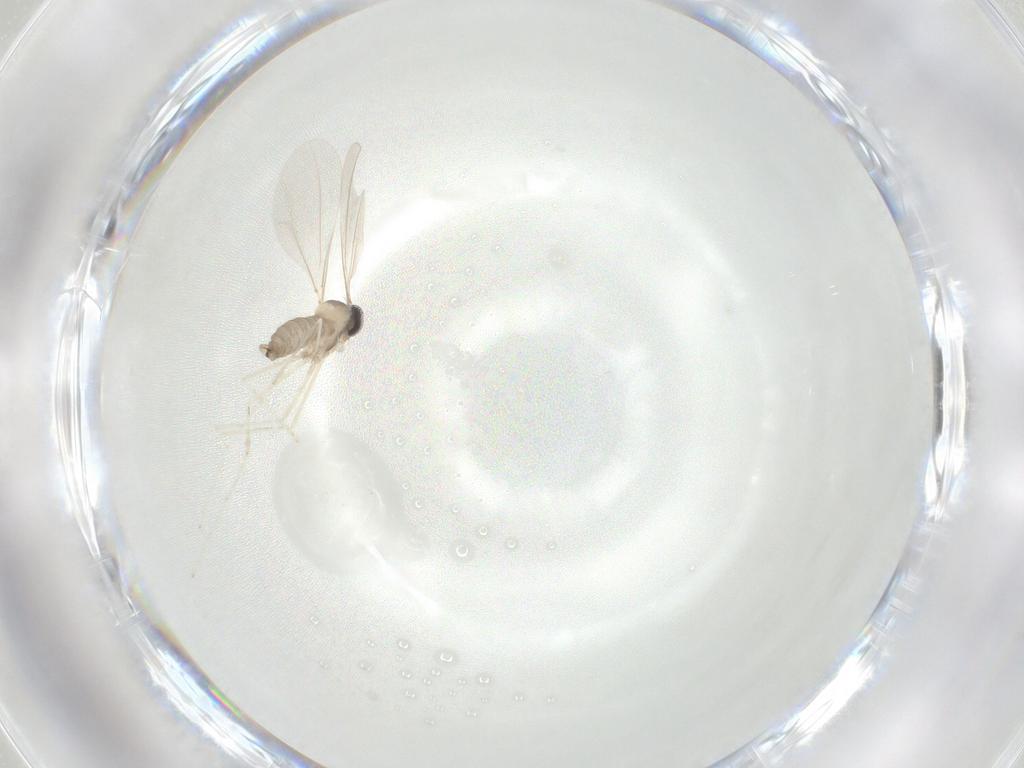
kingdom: Animalia
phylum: Arthropoda
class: Insecta
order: Diptera
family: Cecidomyiidae
